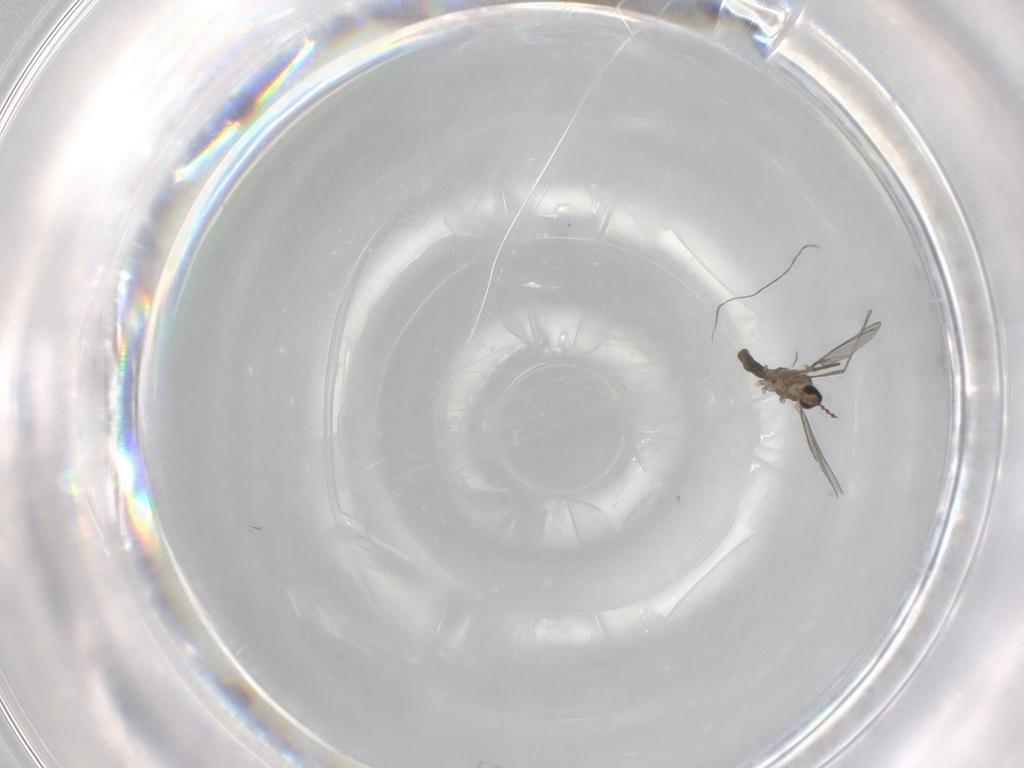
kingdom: Animalia
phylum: Arthropoda
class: Insecta
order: Diptera
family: Cecidomyiidae
